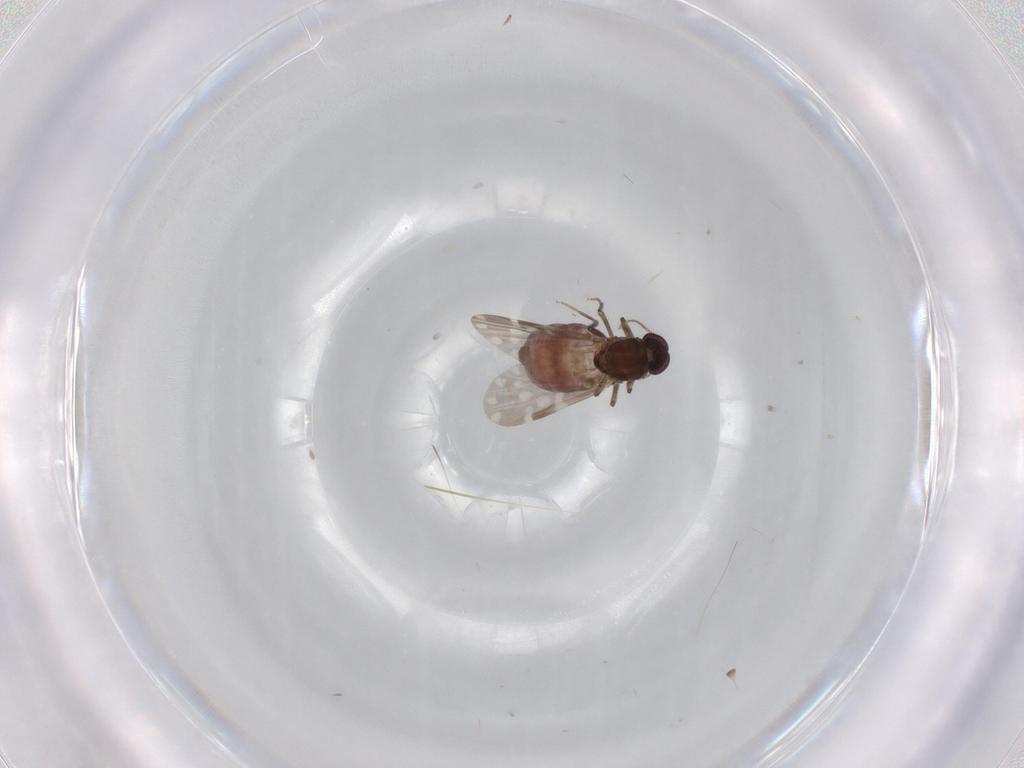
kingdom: Animalia
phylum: Arthropoda
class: Insecta
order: Diptera
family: Ceratopogonidae
